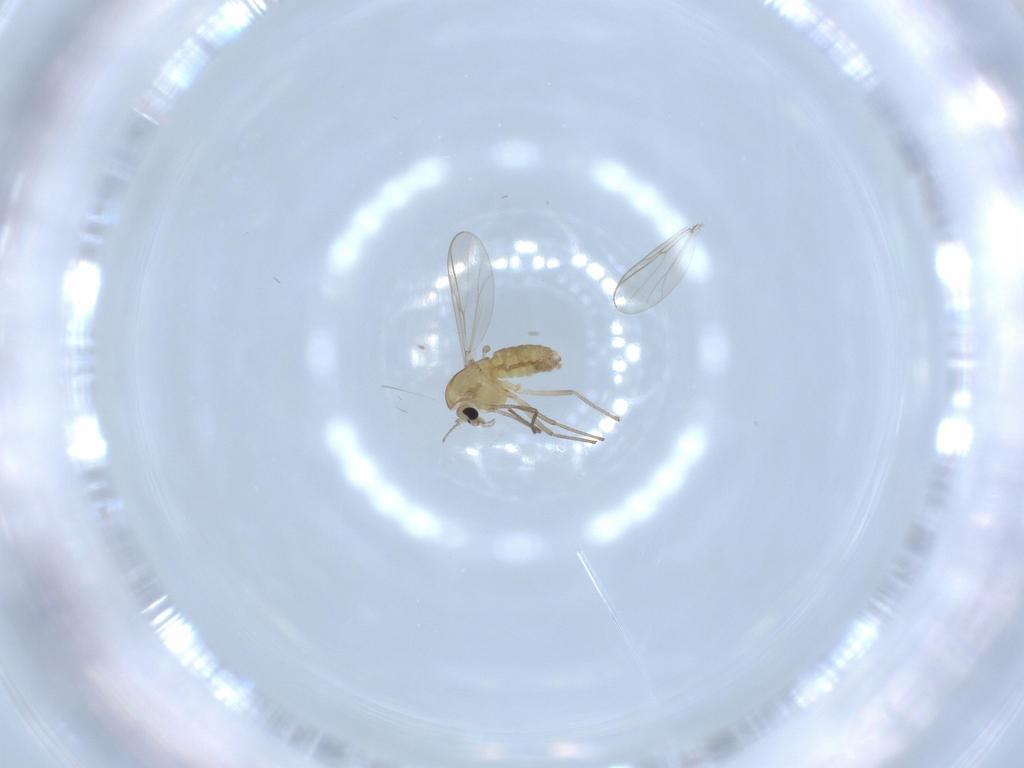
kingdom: Animalia
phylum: Arthropoda
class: Insecta
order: Diptera
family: Chironomidae
